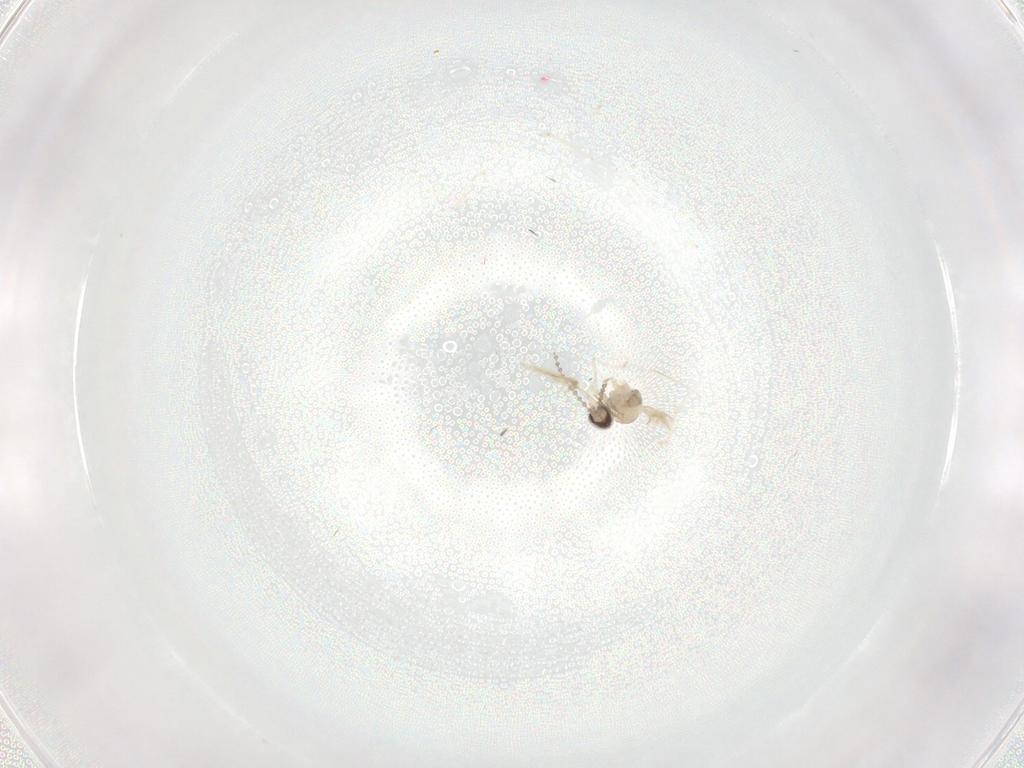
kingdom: Animalia
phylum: Arthropoda
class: Insecta
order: Diptera
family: Cecidomyiidae
